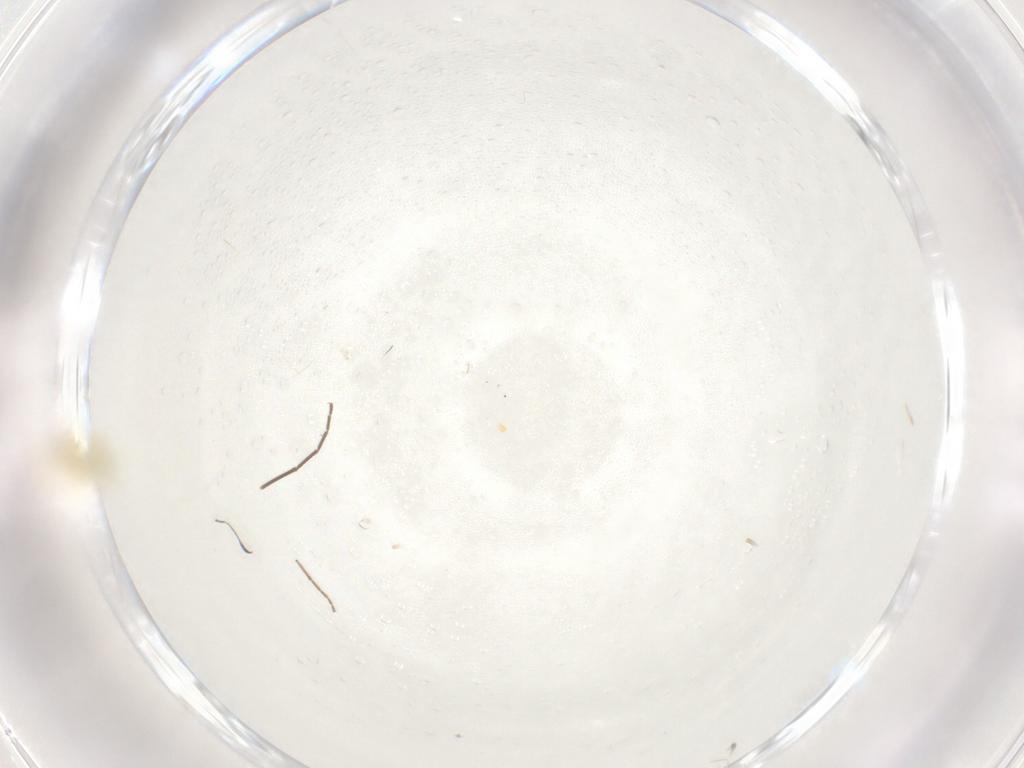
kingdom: Animalia
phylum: Arthropoda
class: Insecta
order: Hemiptera
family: Aleyrodidae
